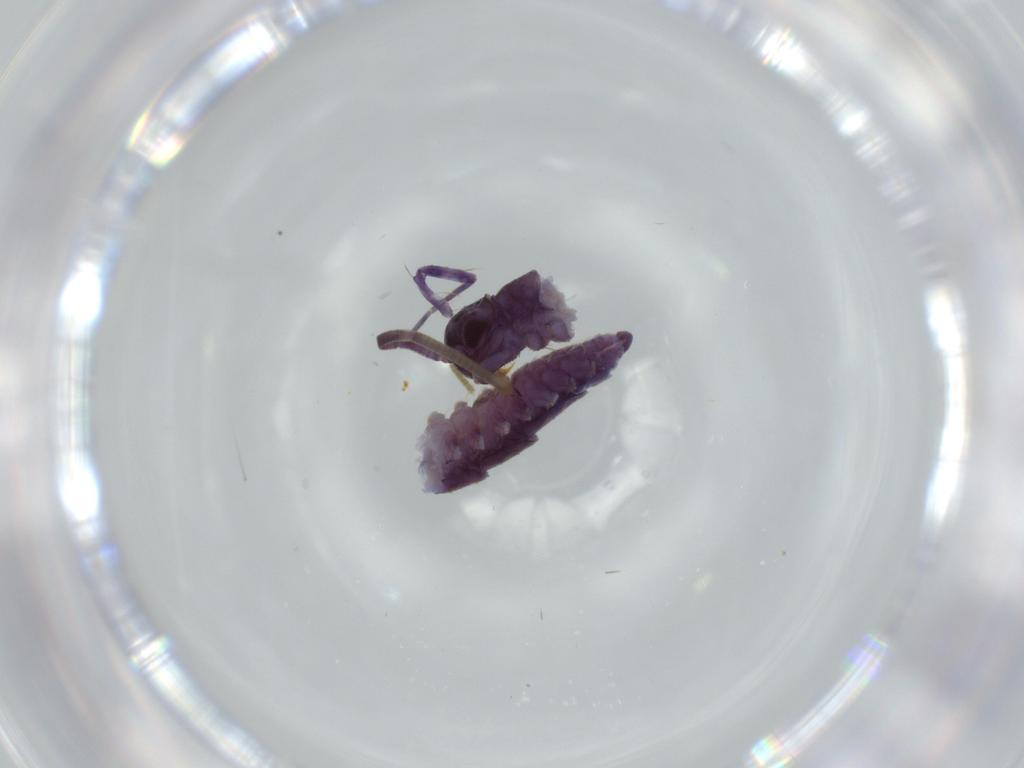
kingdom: Animalia
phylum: Arthropoda
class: Chilopoda
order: Scutigeromorpha
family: Scutigeridae
